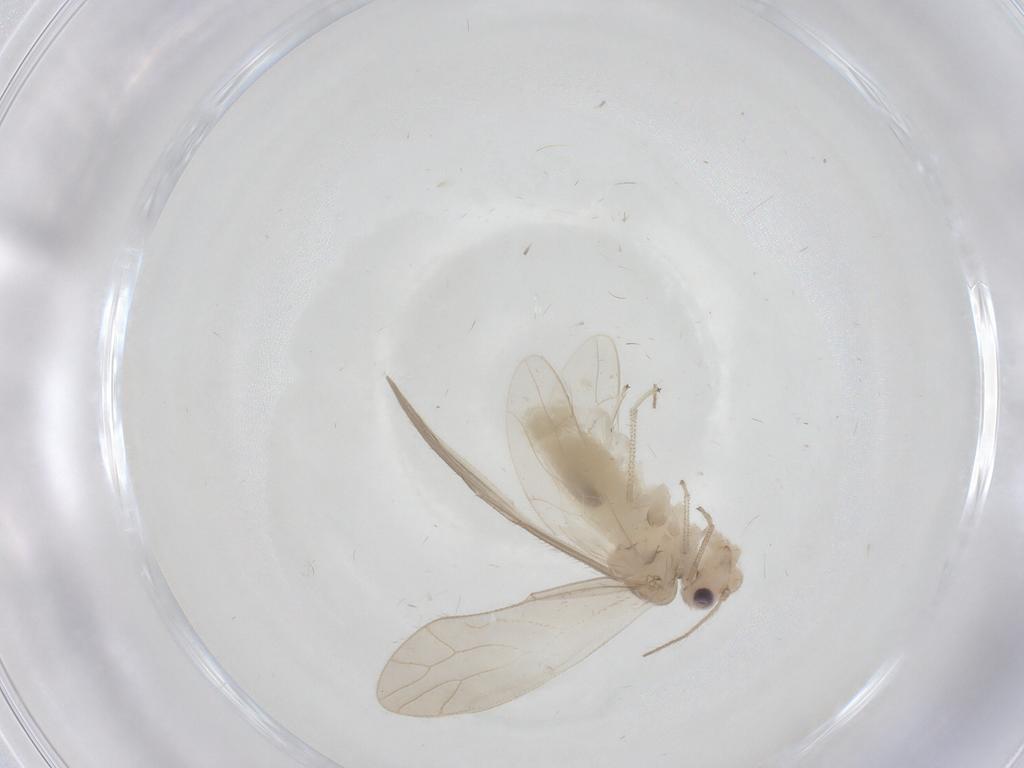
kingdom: Animalia
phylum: Arthropoda
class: Insecta
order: Psocodea
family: Caeciliusidae
